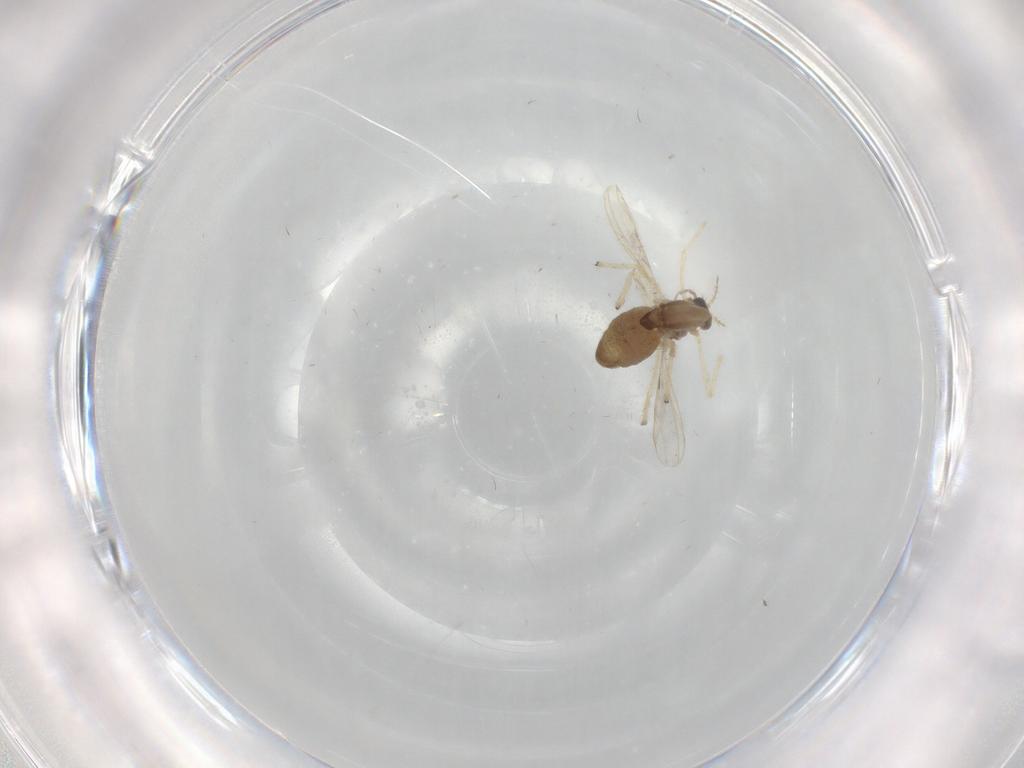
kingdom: Animalia
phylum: Arthropoda
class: Insecta
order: Diptera
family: Chironomidae
